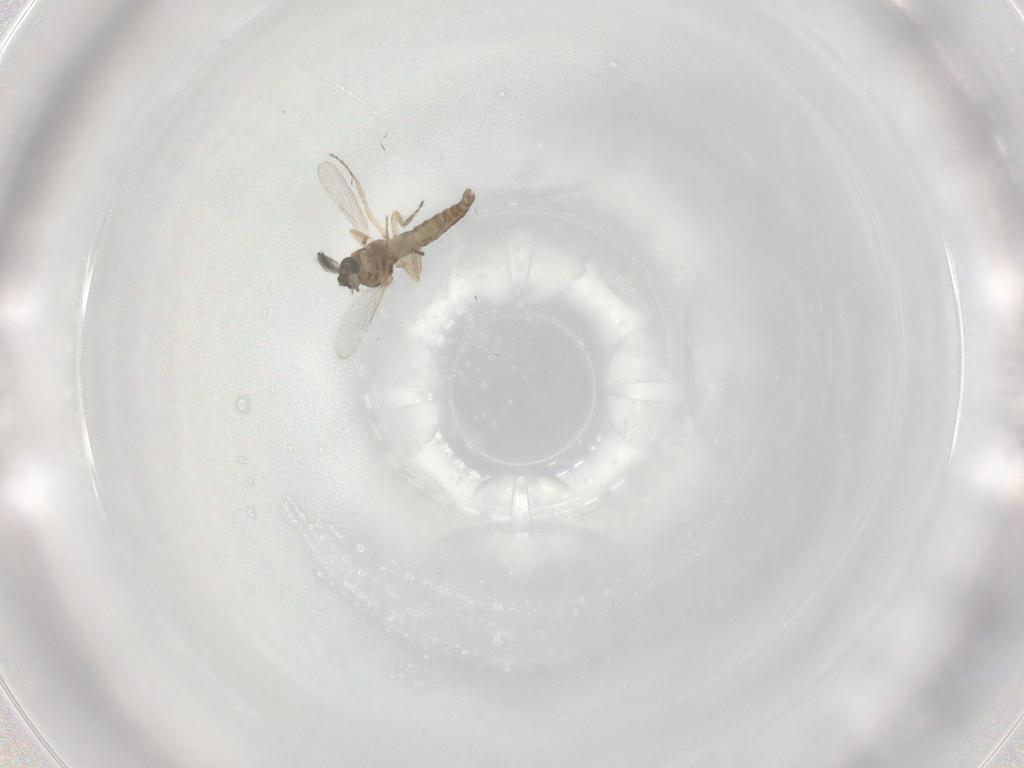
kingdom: Animalia
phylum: Arthropoda
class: Insecta
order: Diptera
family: Ceratopogonidae
